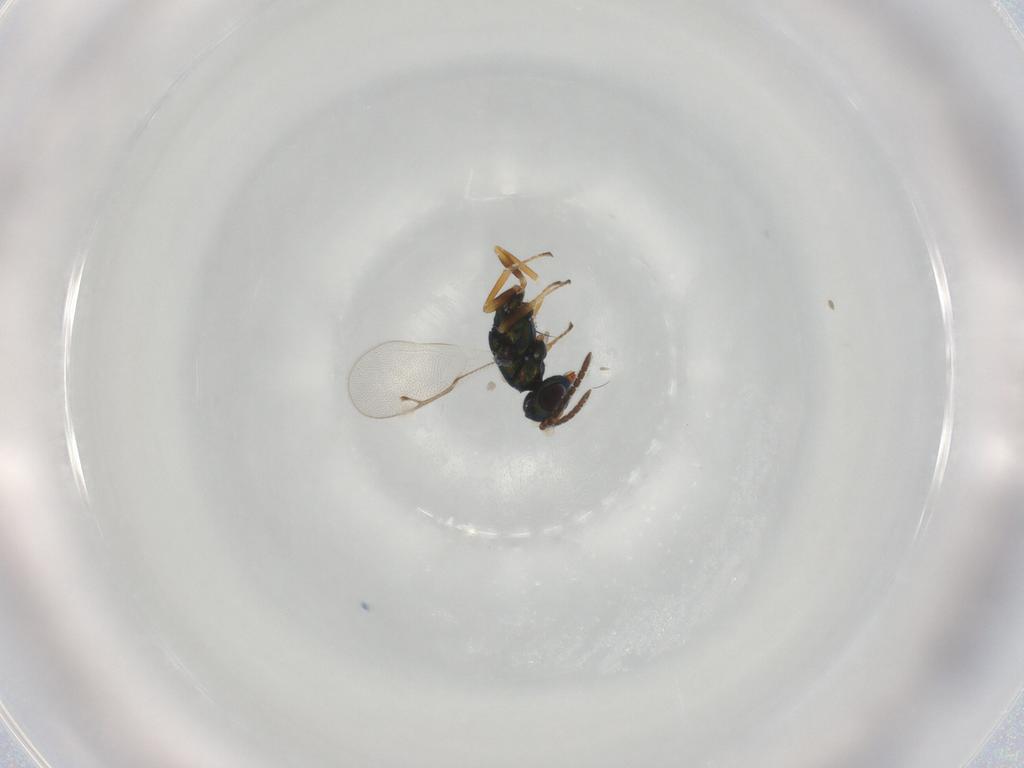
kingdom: Animalia
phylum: Arthropoda
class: Insecta
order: Hymenoptera
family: Pteromalidae
